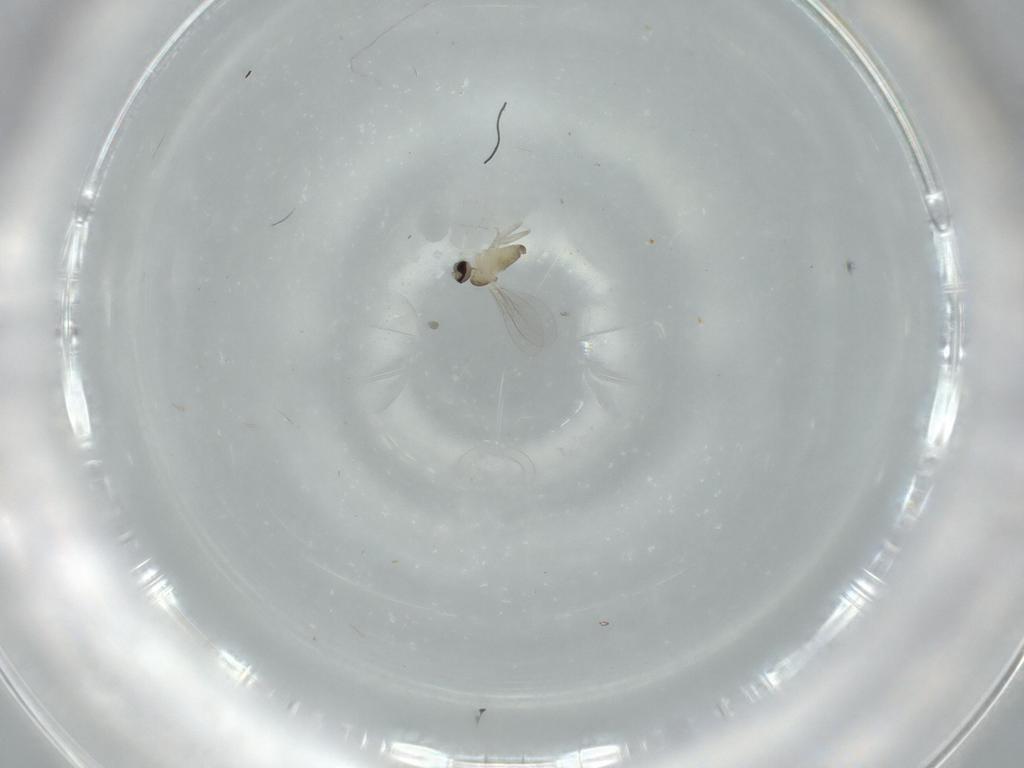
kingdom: Animalia
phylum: Arthropoda
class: Insecta
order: Diptera
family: Cecidomyiidae
